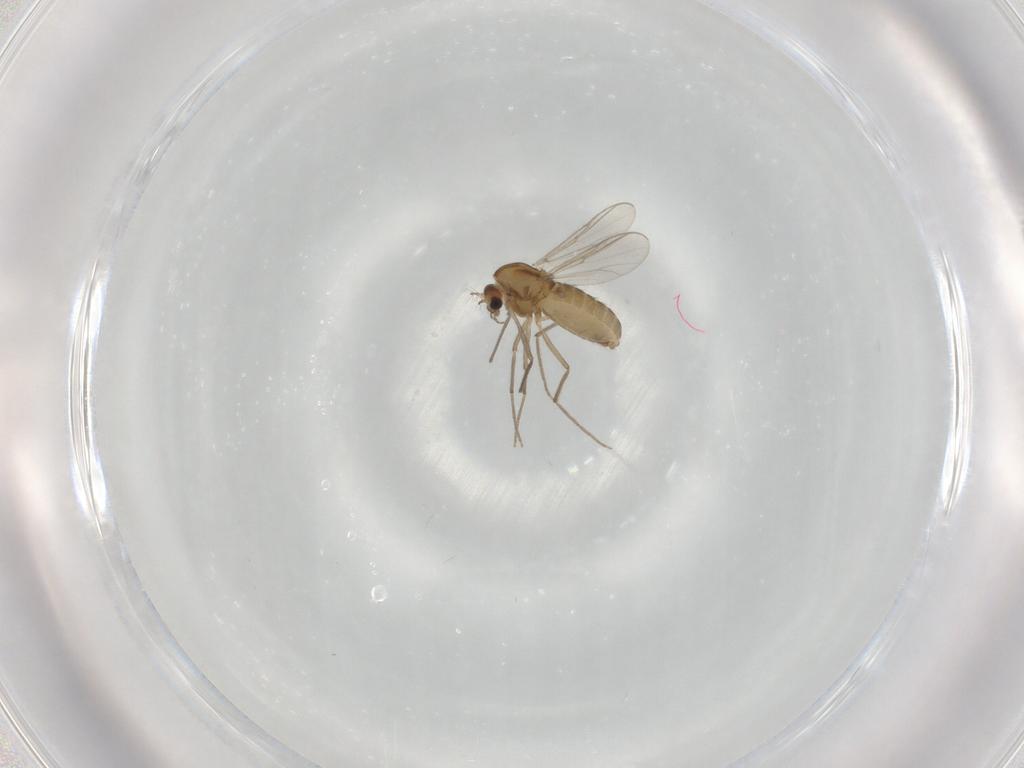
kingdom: Animalia
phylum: Arthropoda
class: Insecta
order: Diptera
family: Chironomidae
